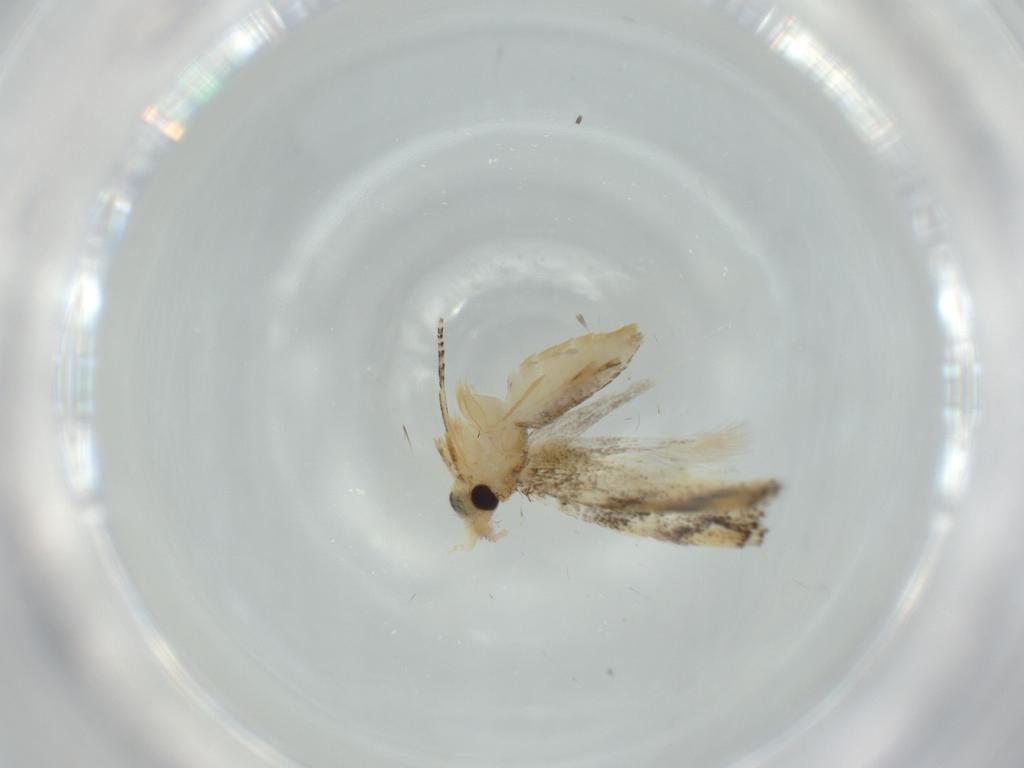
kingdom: Animalia
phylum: Arthropoda
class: Insecta
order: Lepidoptera
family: Bucculatricidae
